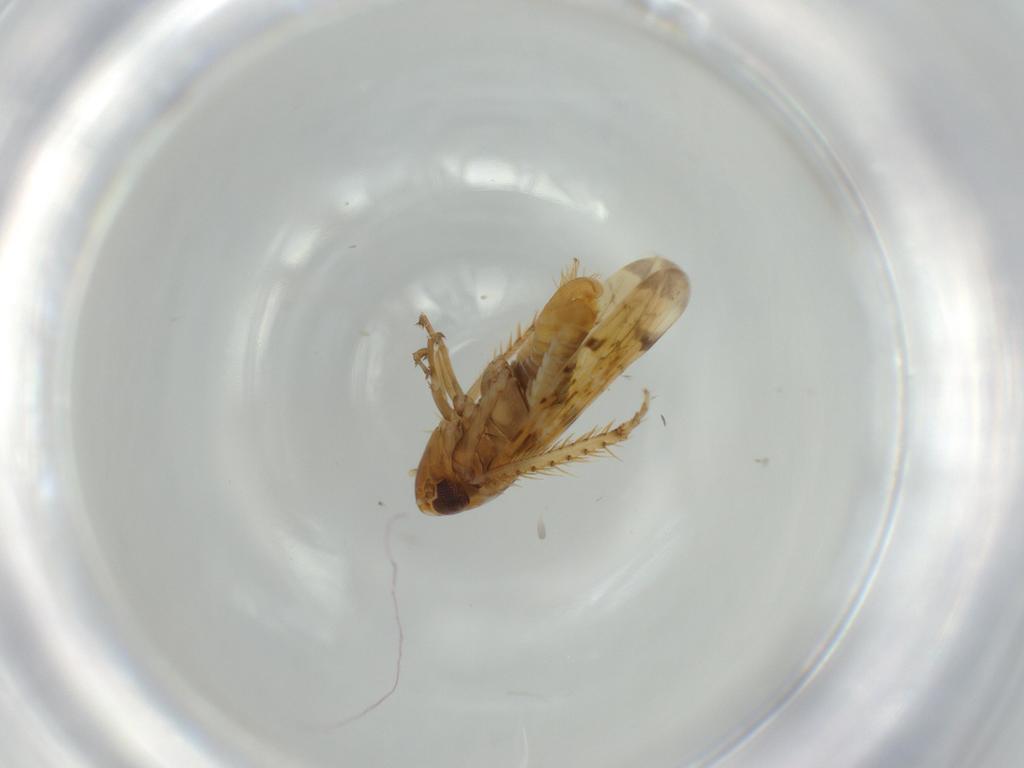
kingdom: Animalia
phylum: Arthropoda
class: Insecta
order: Hemiptera
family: Cicadellidae
